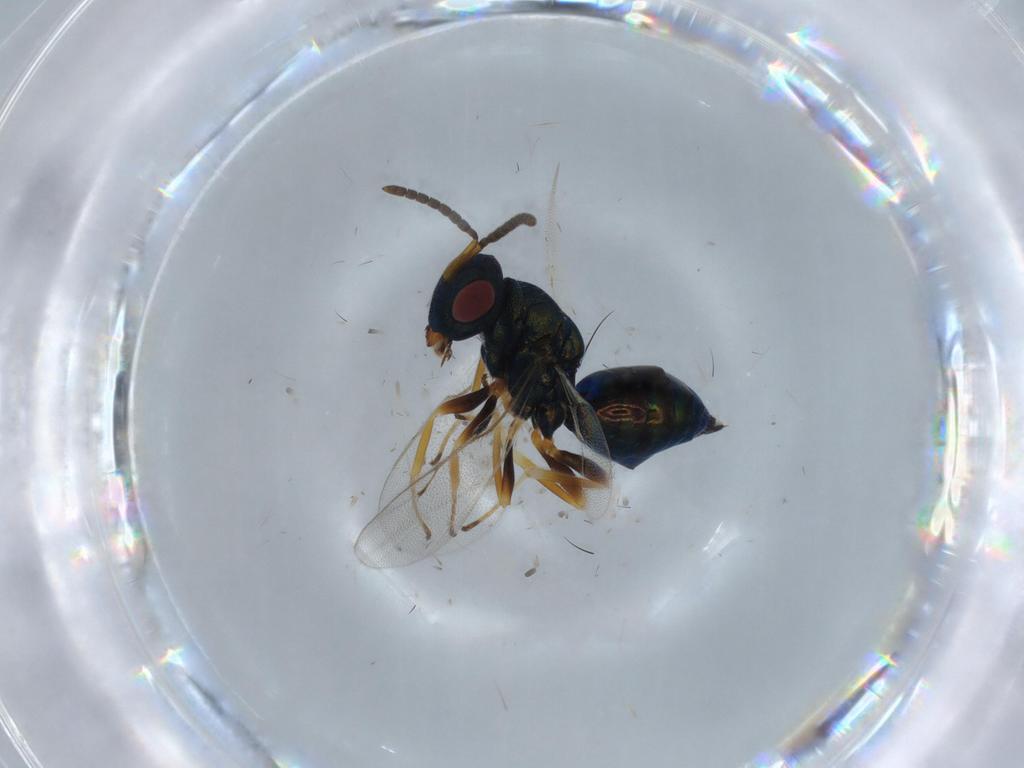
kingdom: Animalia
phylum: Arthropoda
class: Insecta
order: Hymenoptera
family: Pteromalidae
